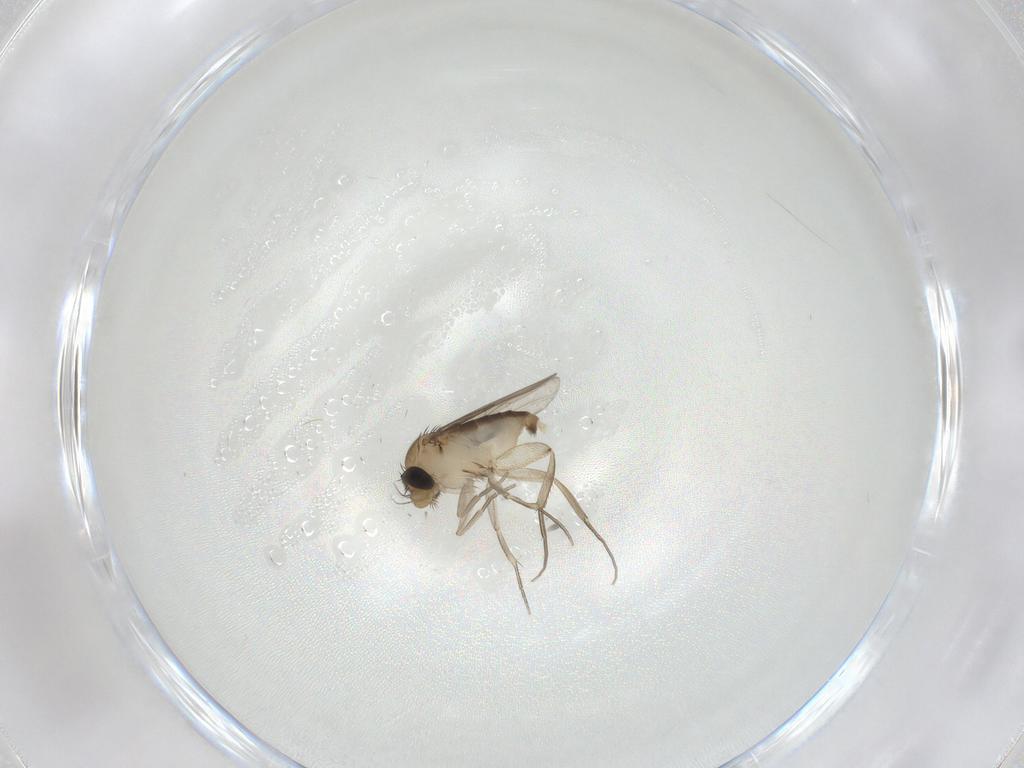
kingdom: Animalia
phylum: Arthropoda
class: Insecta
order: Diptera
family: Phoridae
